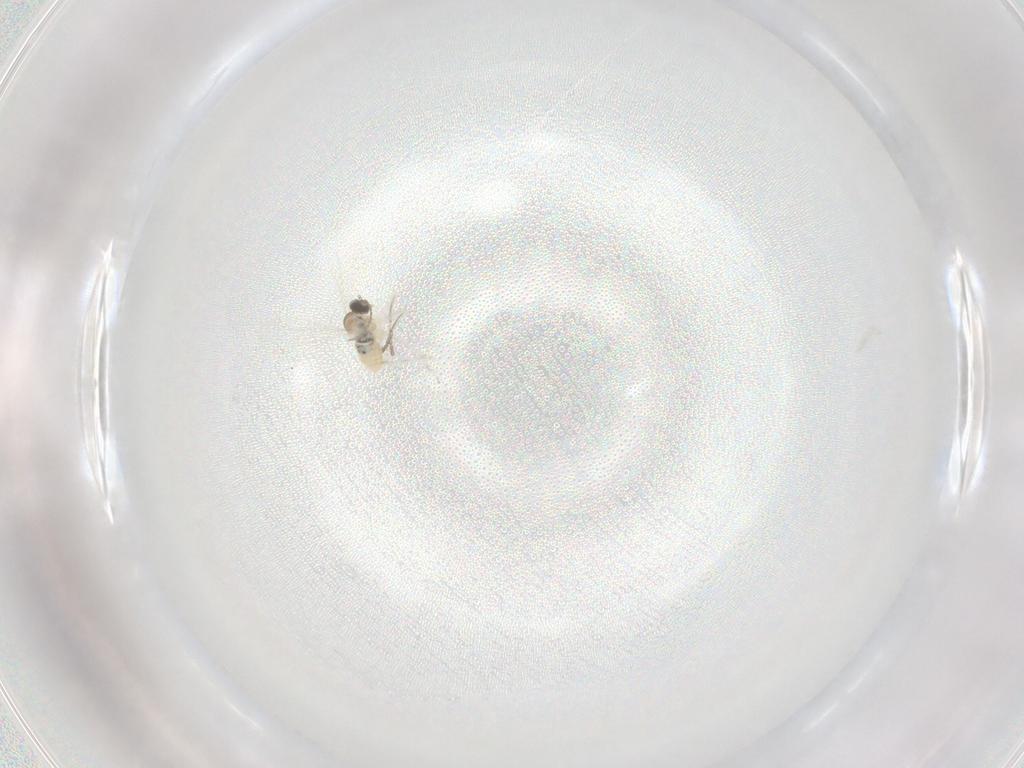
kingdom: Animalia
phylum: Arthropoda
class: Insecta
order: Diptera
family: Cecidomyiidae
